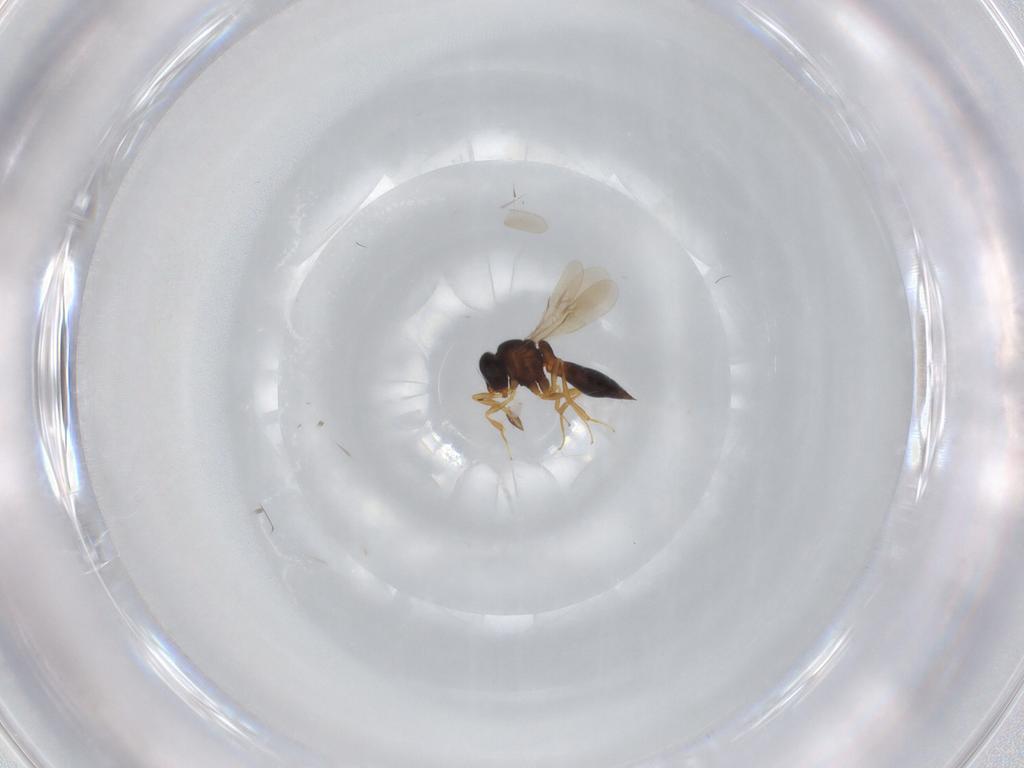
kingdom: Animalia
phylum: Arthropoda
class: Insecta
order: Hymenoptera
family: Scelionidae
